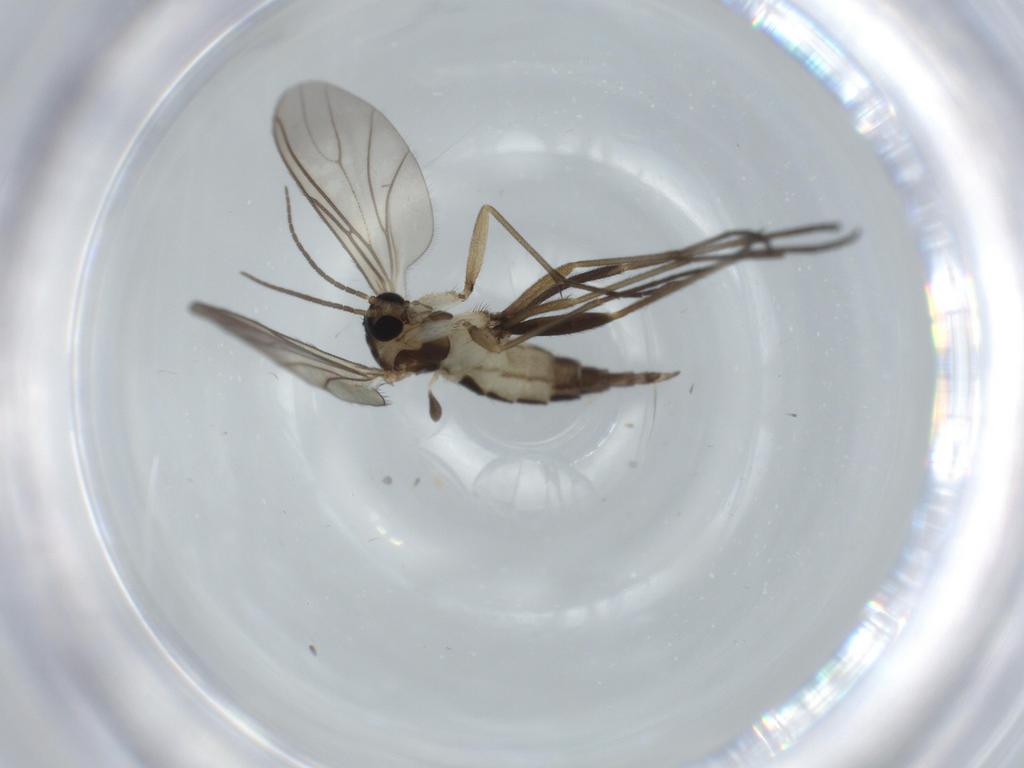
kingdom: Animalia
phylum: Arthropoda
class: Insecta
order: Diptera
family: Sciaridae
